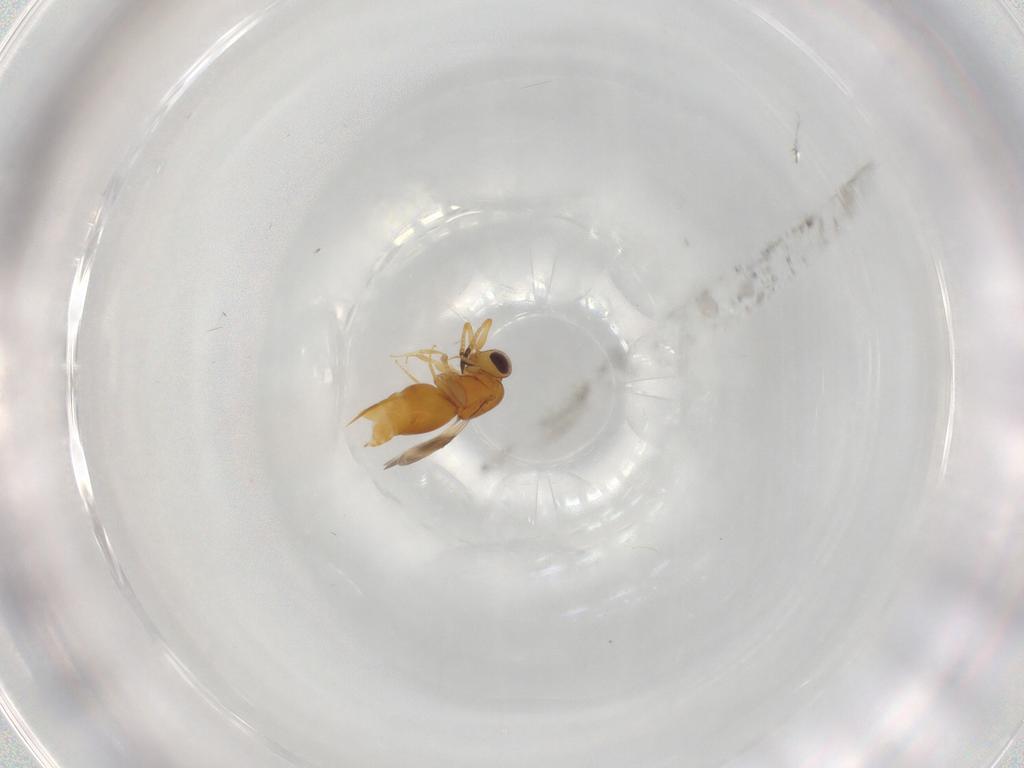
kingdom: Animalia
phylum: Arthropoda
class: Insecta
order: Hymenoptera
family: Ceraphronidae
